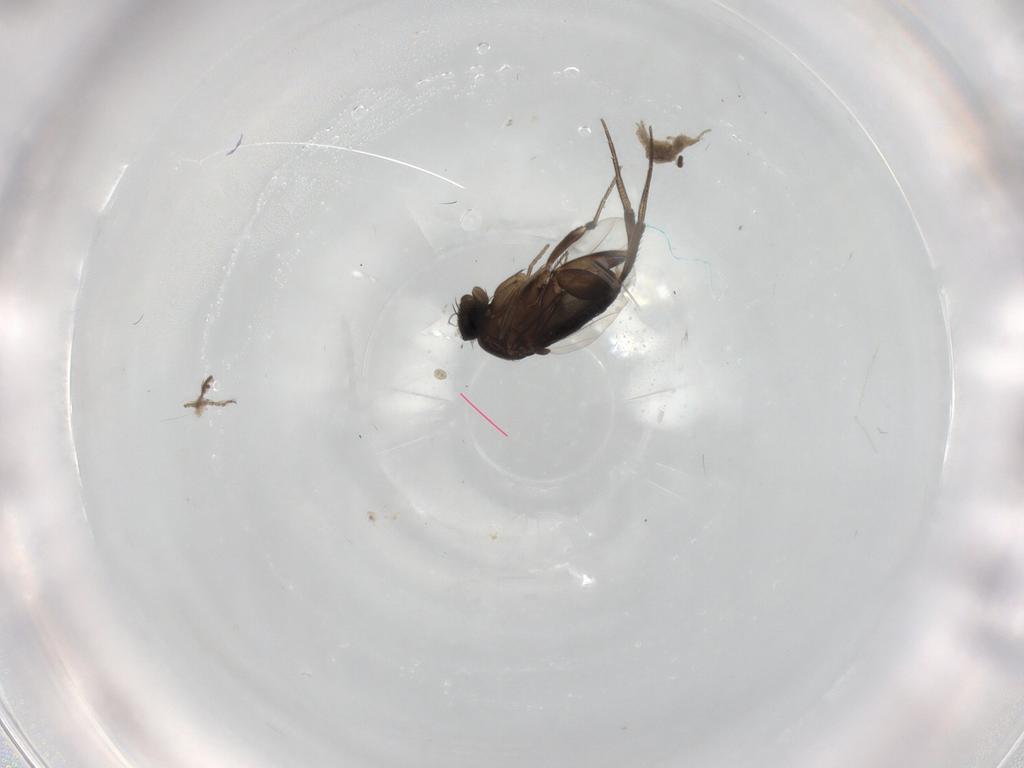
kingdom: Animalia
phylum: Arthropoda
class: Insecta
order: Diptera
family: Phoridae
